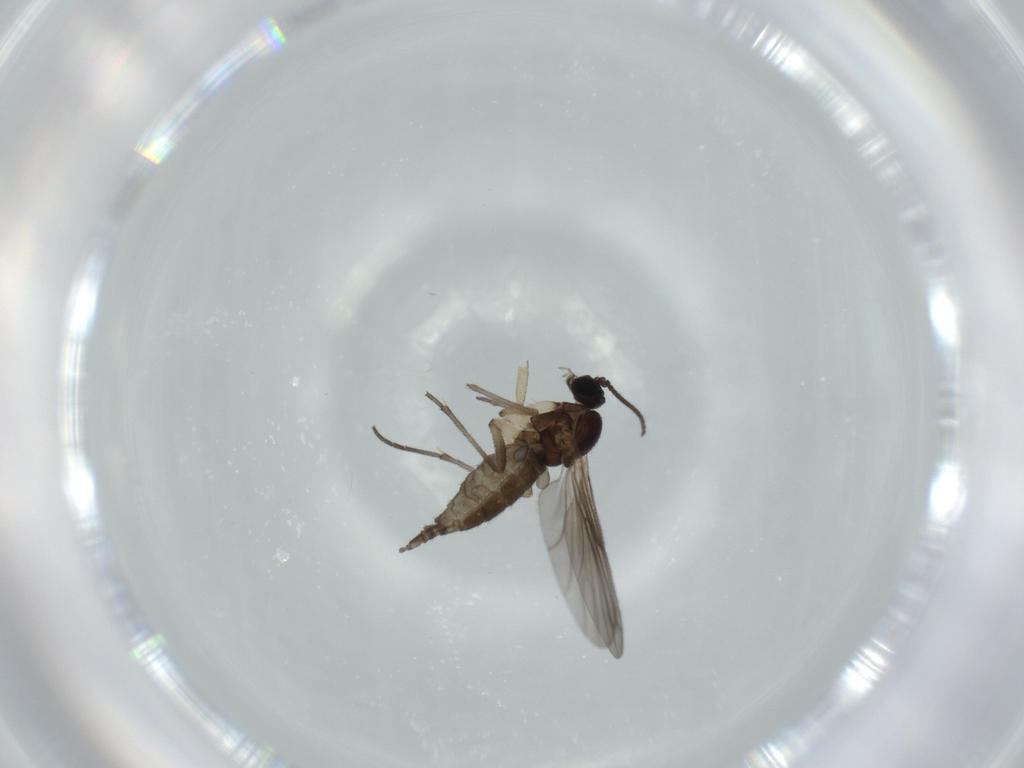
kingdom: Animalia
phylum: Arthropoda
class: Insecta
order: Diptera
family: Sciaridae
